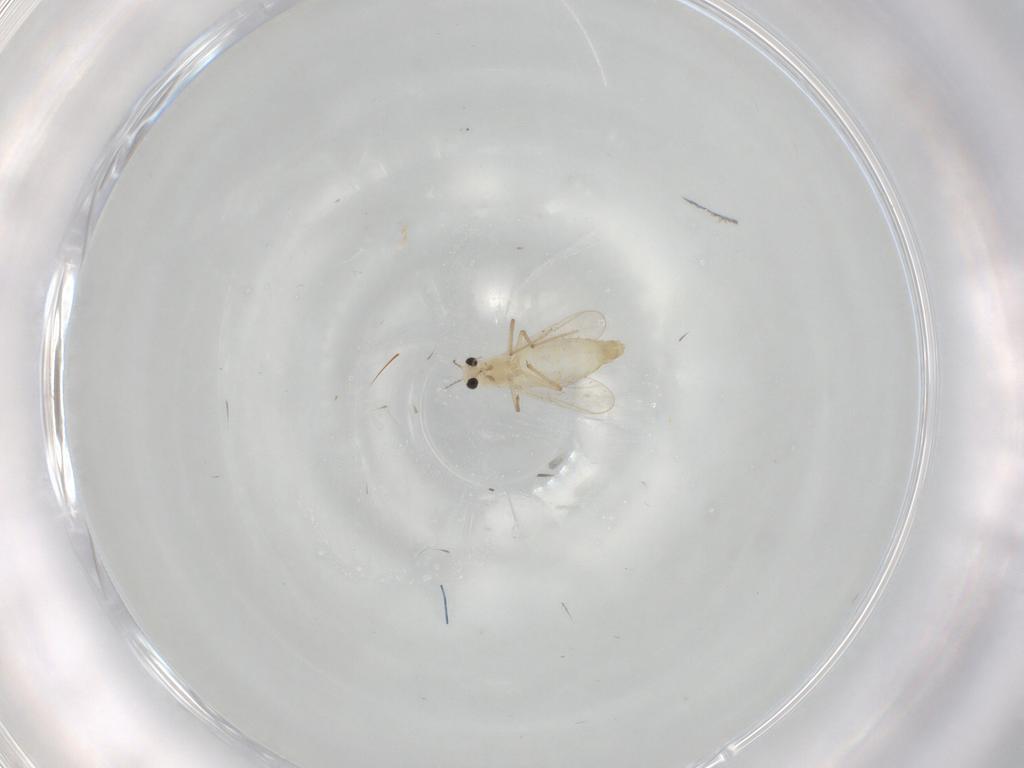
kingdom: Animalia
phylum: Arthropoda
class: Insecta
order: Diptera
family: Chironomidae
